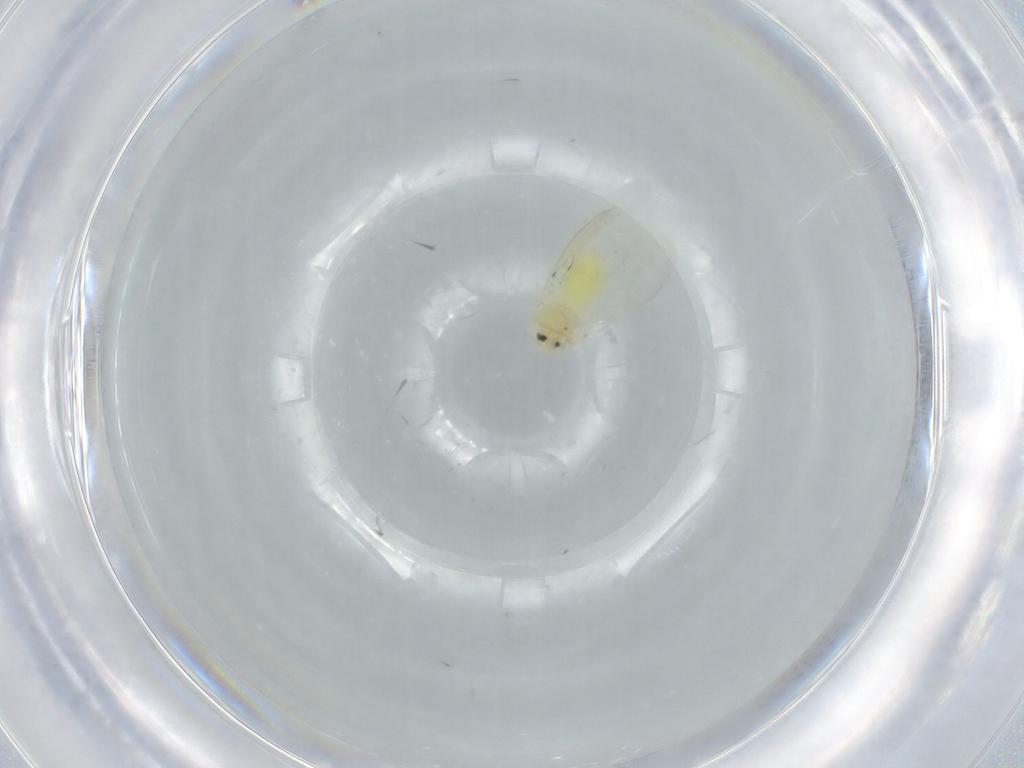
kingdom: Animalia
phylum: Arthropoda
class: Insecta
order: Hemiptera
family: Aleyrodidae
